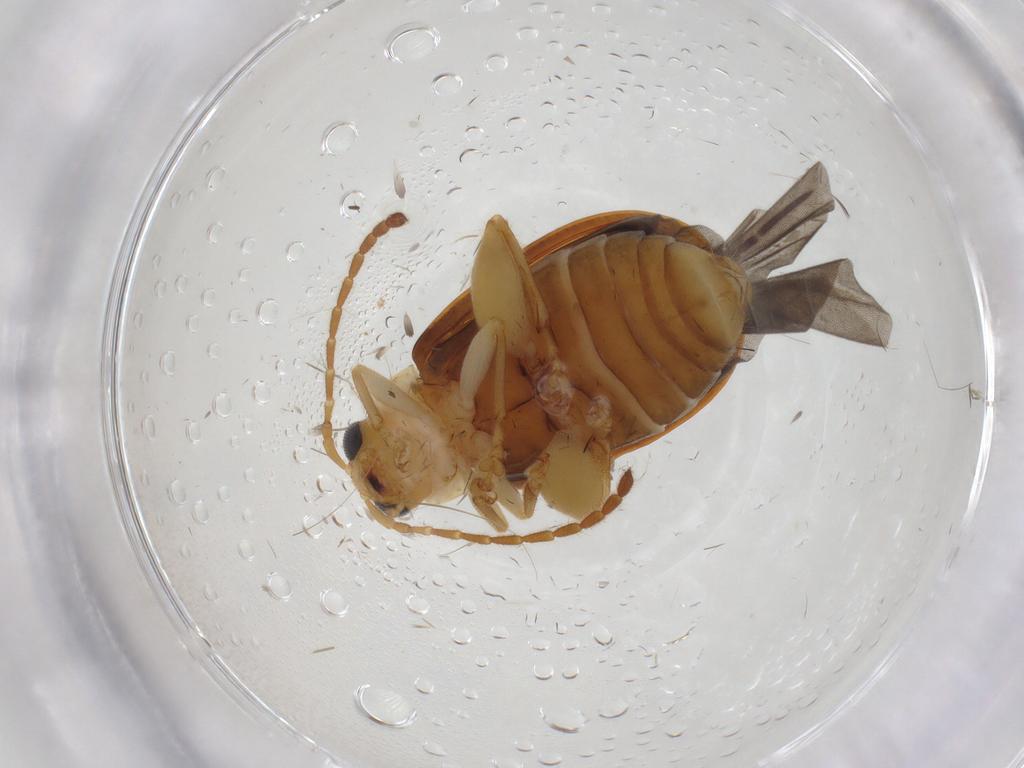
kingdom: Animalia
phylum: Arthropoda
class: Insecta
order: Coleoptera
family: Chrysomelidae
